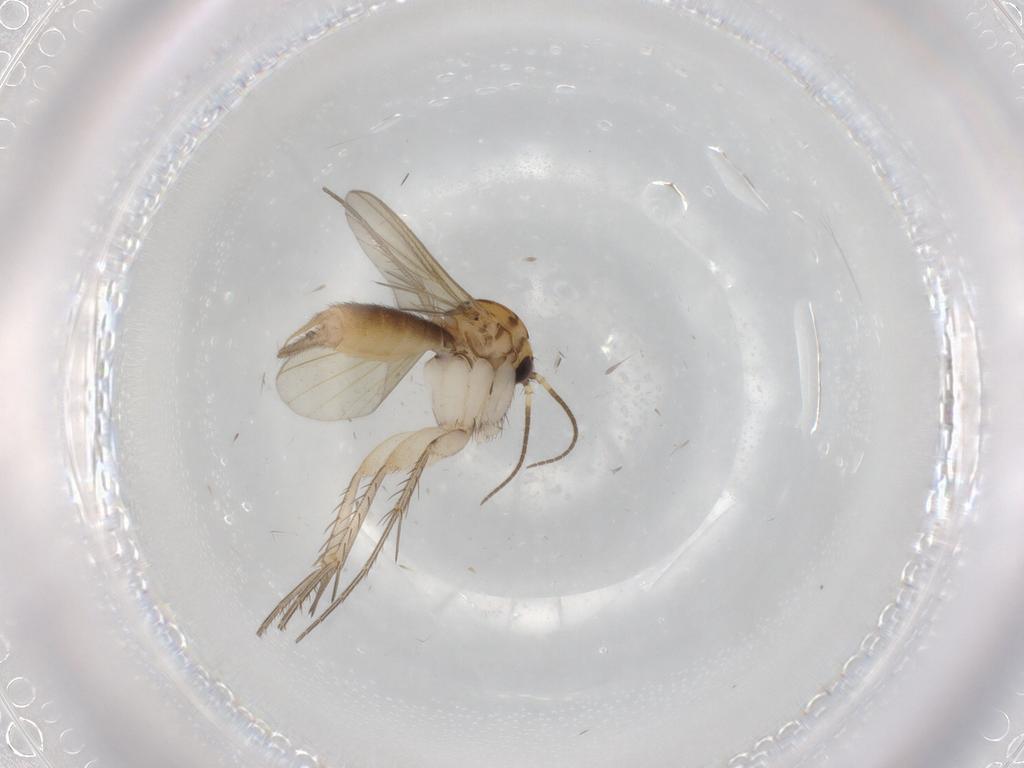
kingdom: Animalia
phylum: Arthropoda
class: Insecta
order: Diptera
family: Mycetophilidae
